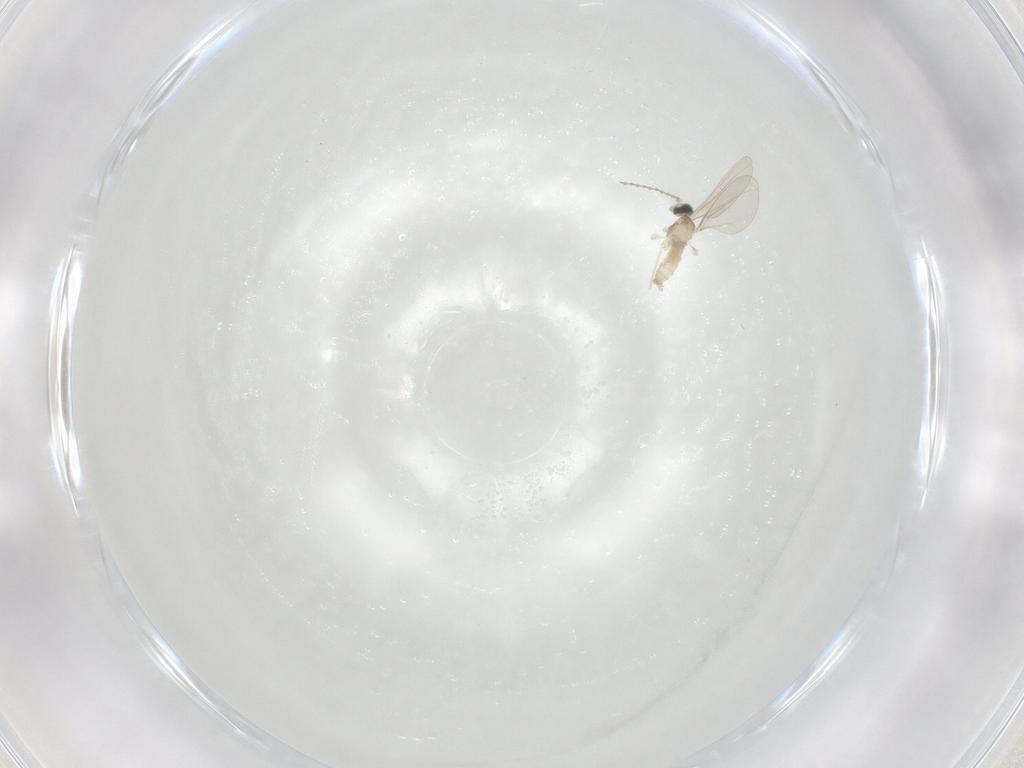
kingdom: Animalia
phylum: Arthropoda
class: Insecta
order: Diptera
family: Cecidomyiidae
